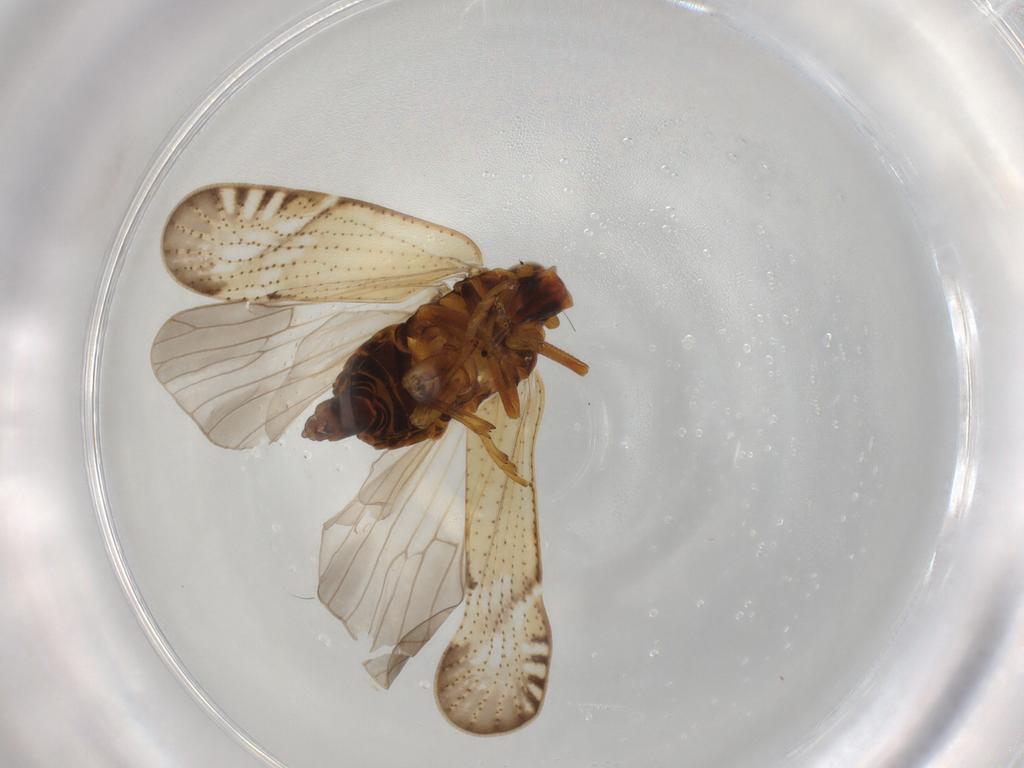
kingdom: Animalia
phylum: Arthropoda
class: Insecta
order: Hemiptera
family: Cixiidae
